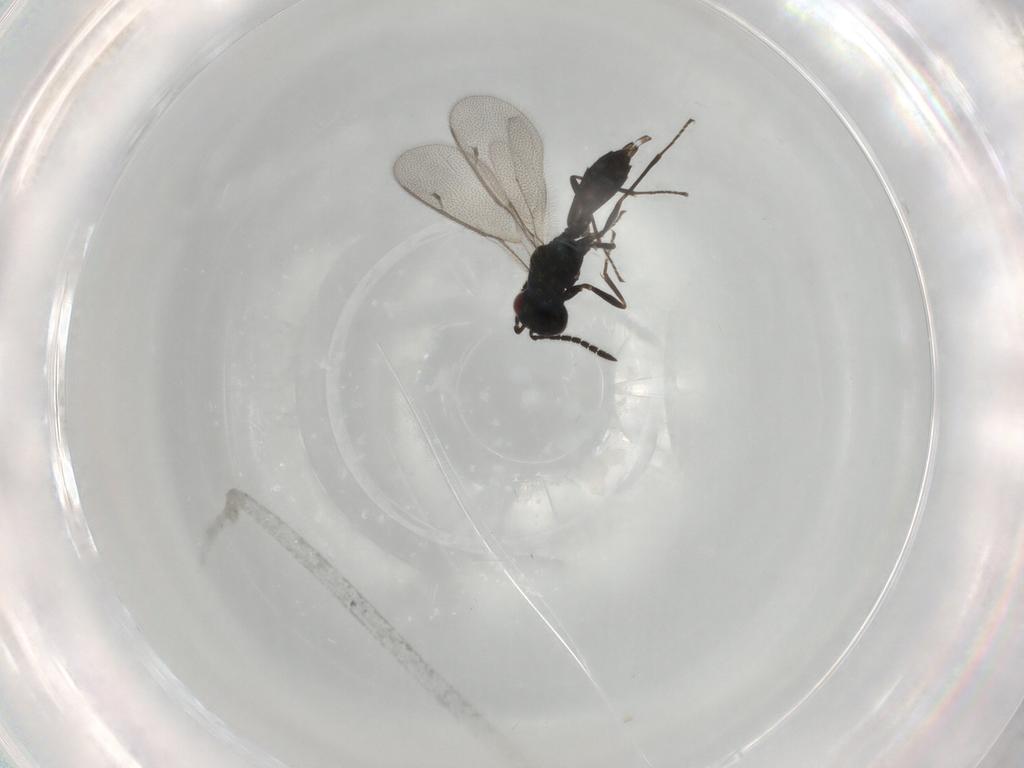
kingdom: Animalia
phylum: Arthropoda
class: Insecta
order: Hymenoptera
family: Pteromalidae
